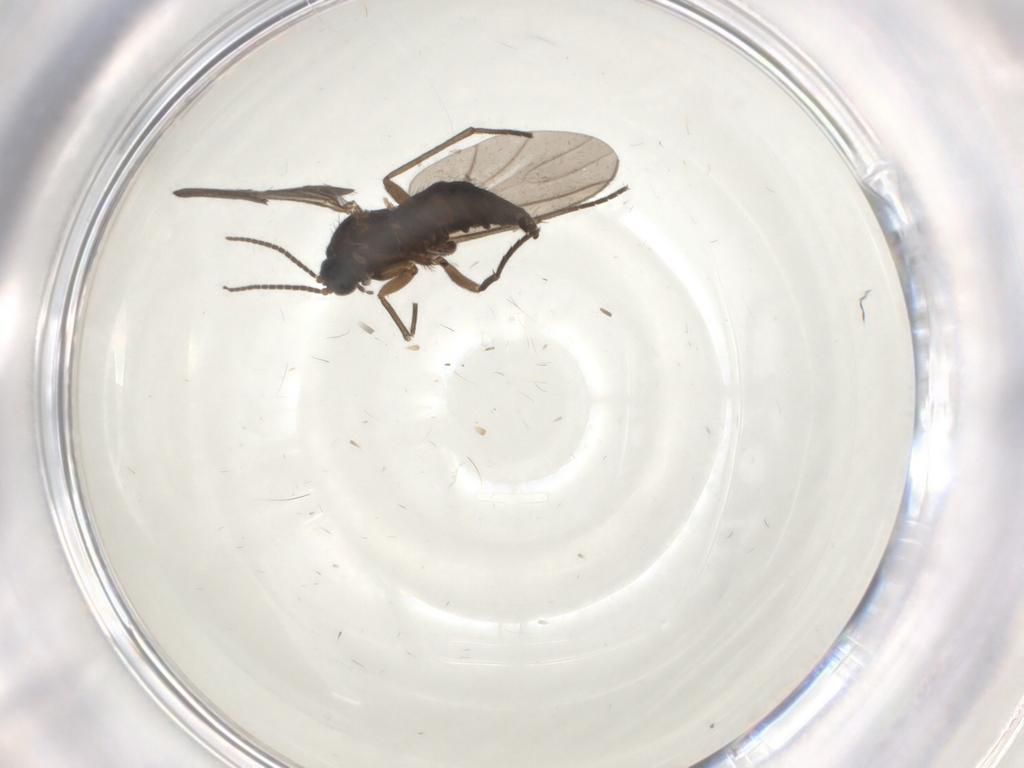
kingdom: Animalia
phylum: Arthropoda
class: Insecta
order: Diptera
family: Sciaridae
